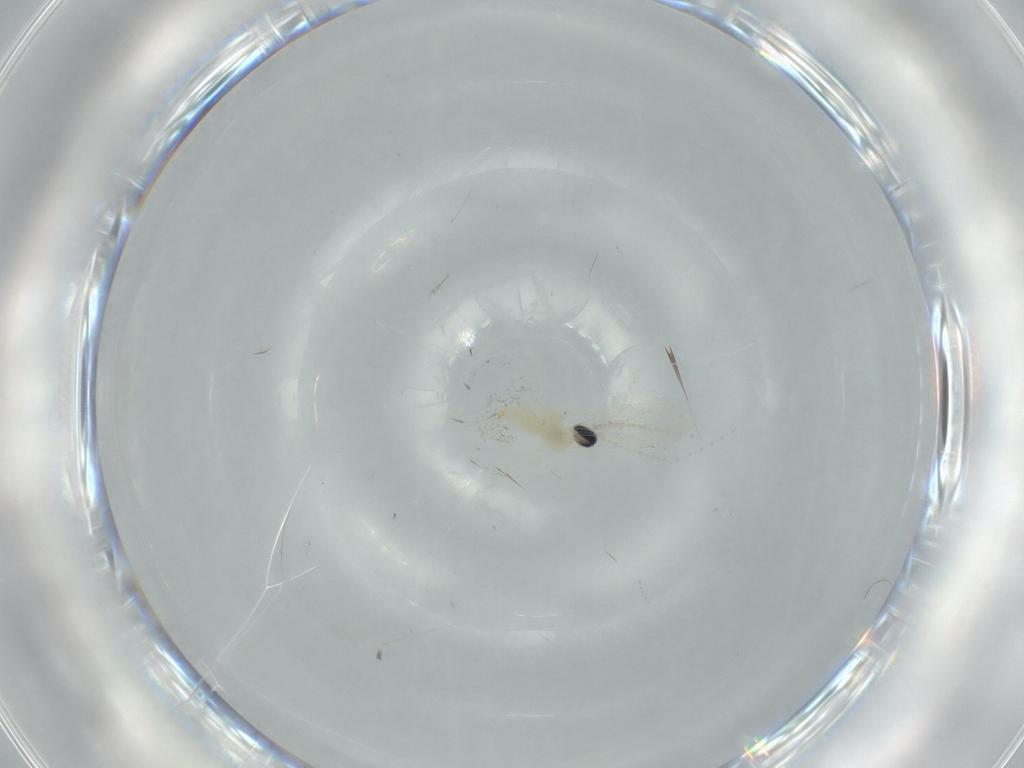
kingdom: Animalia
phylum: Arthropoda
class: Insecta
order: Diptera
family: Cecidomyiidae
